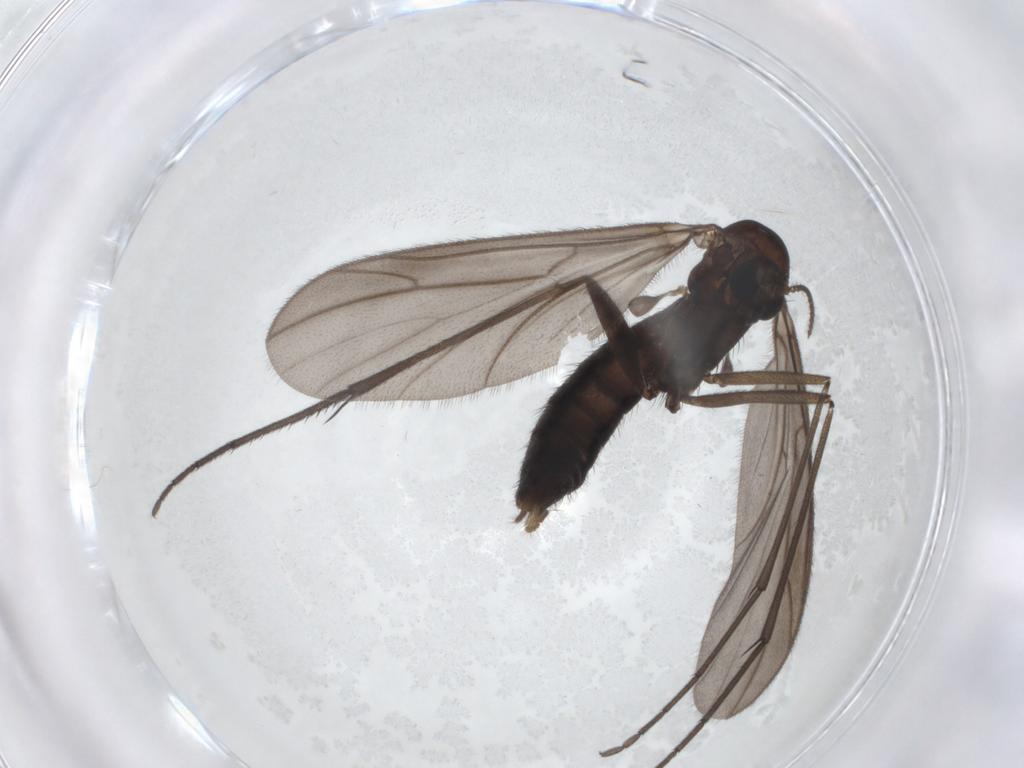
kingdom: Animalia
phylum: Arthropoda
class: Insecta
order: Diptera
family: Ditomyiidae
